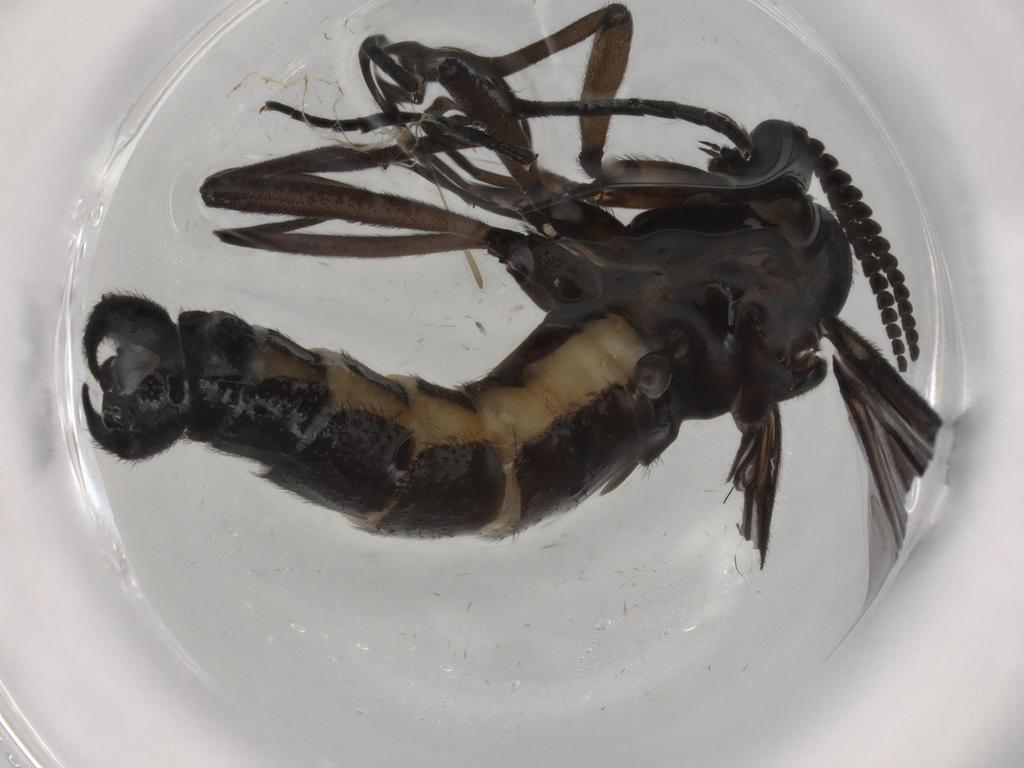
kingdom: Animalia
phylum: Arthropoda
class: Insecta
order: Diptera
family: Sciaridae
